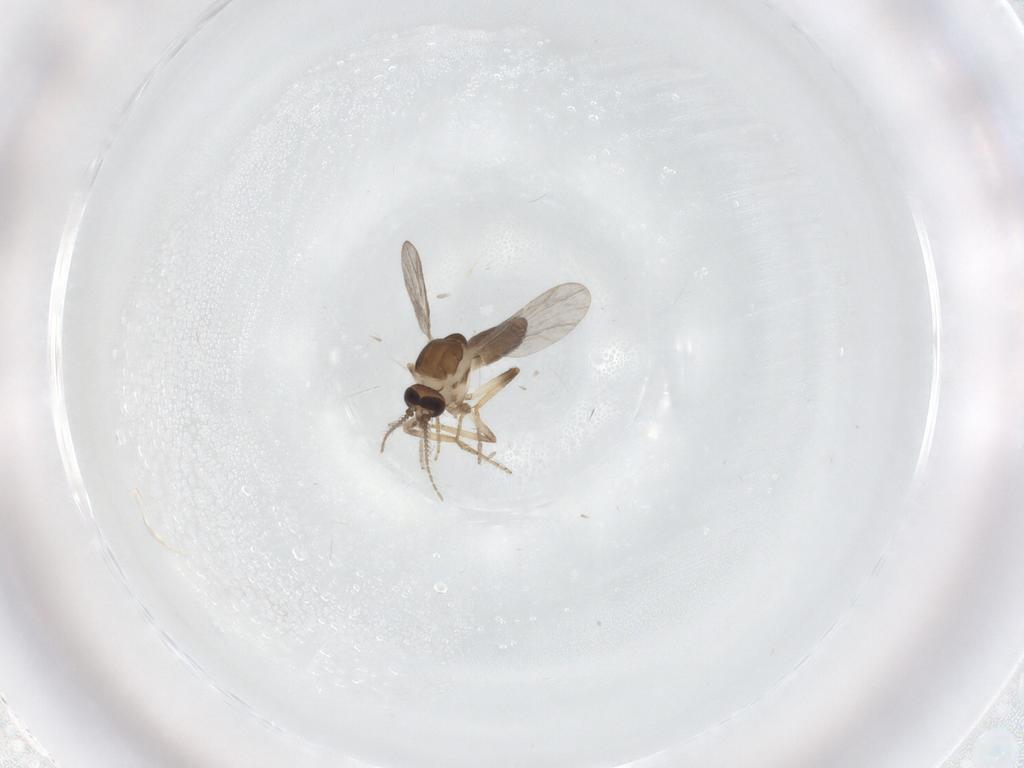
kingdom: Animalia
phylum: Arthropoda
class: Insecta
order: Diptera
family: Ceratopogonidae
